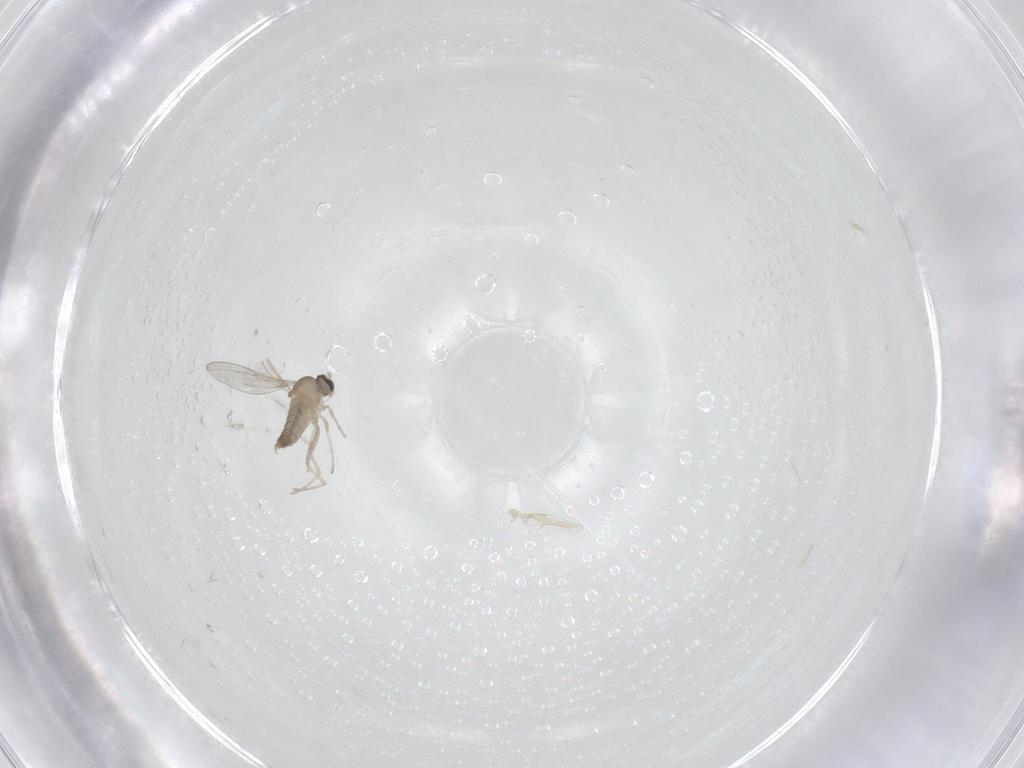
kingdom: Animalia
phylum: Arthropoda
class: Insecta
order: Diptera
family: Cecidomyiidae
